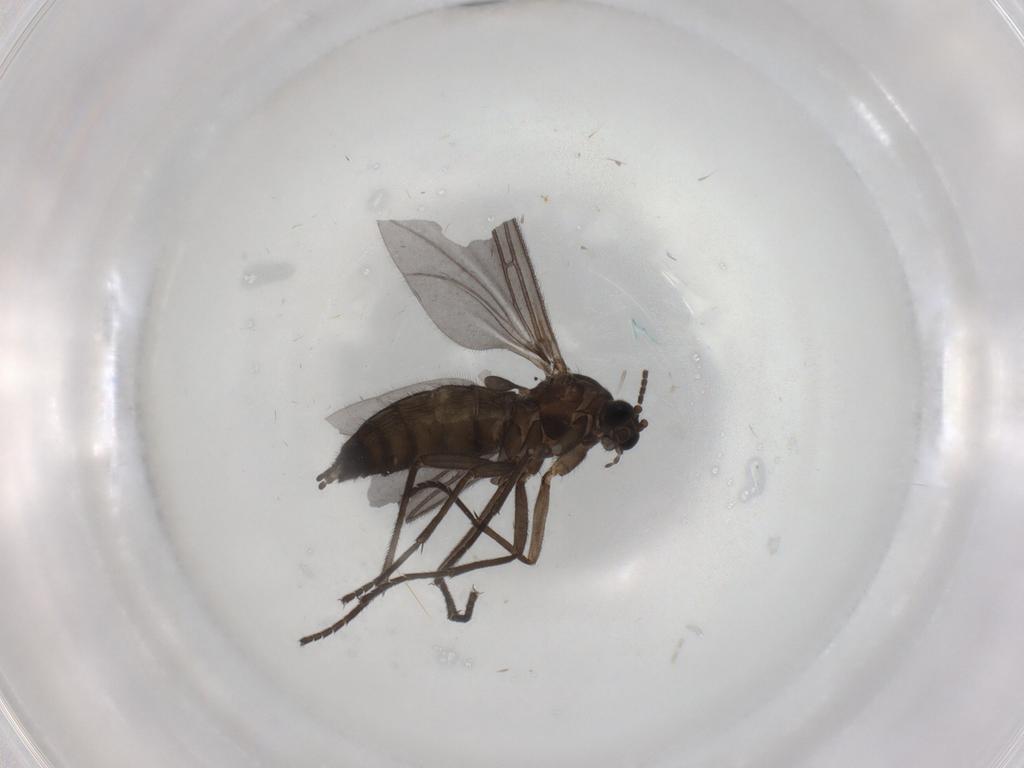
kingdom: Animalia
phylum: Arthropoda
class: Insecta
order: Diptera
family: Sciaridae
